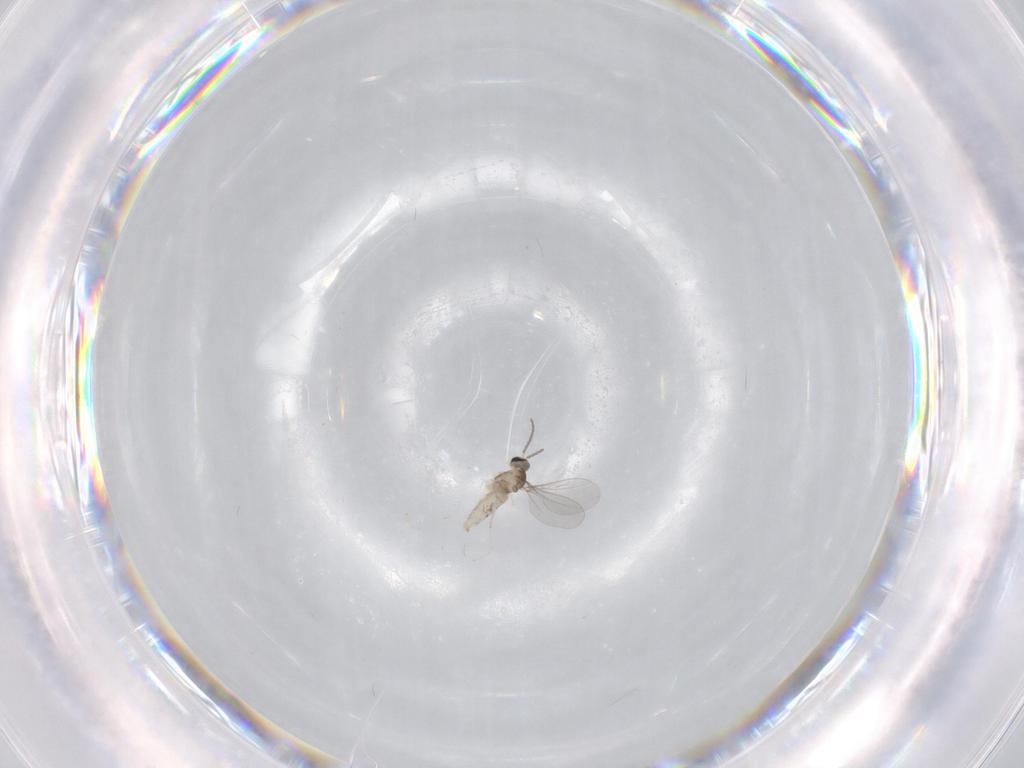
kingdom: Animalia
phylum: Arthropoda
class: Insecta
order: Diptera
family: Cecidomyiidae
